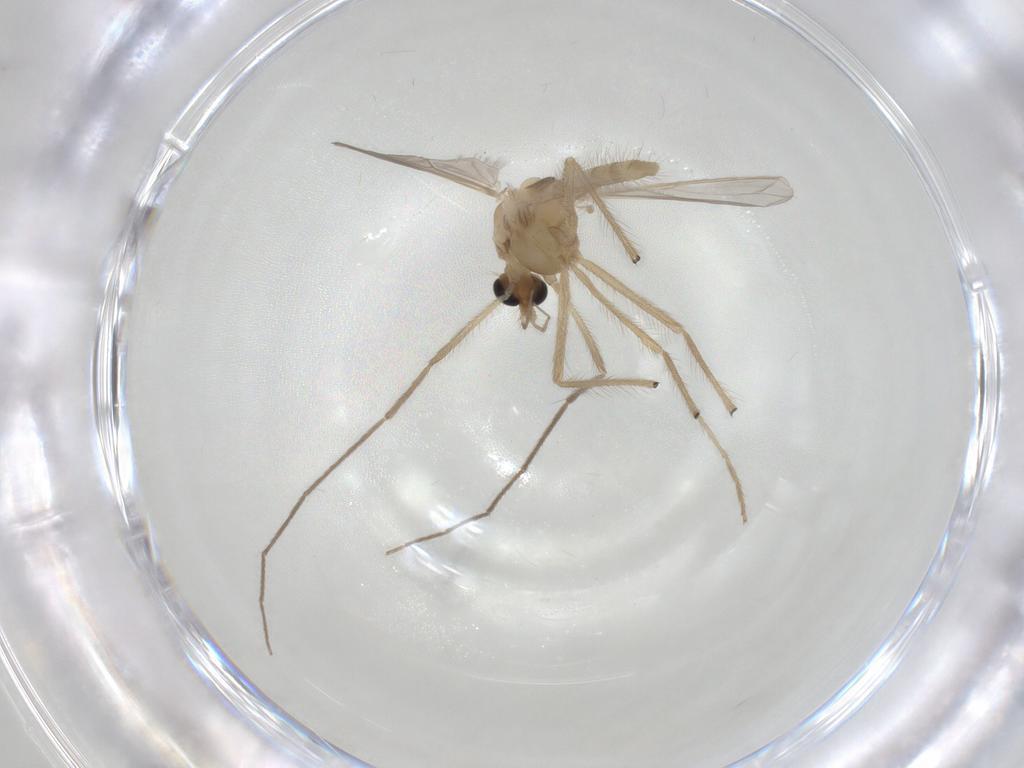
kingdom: Animalia
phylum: Arthropoda
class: Insecta
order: Diptera
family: Chironomidae
